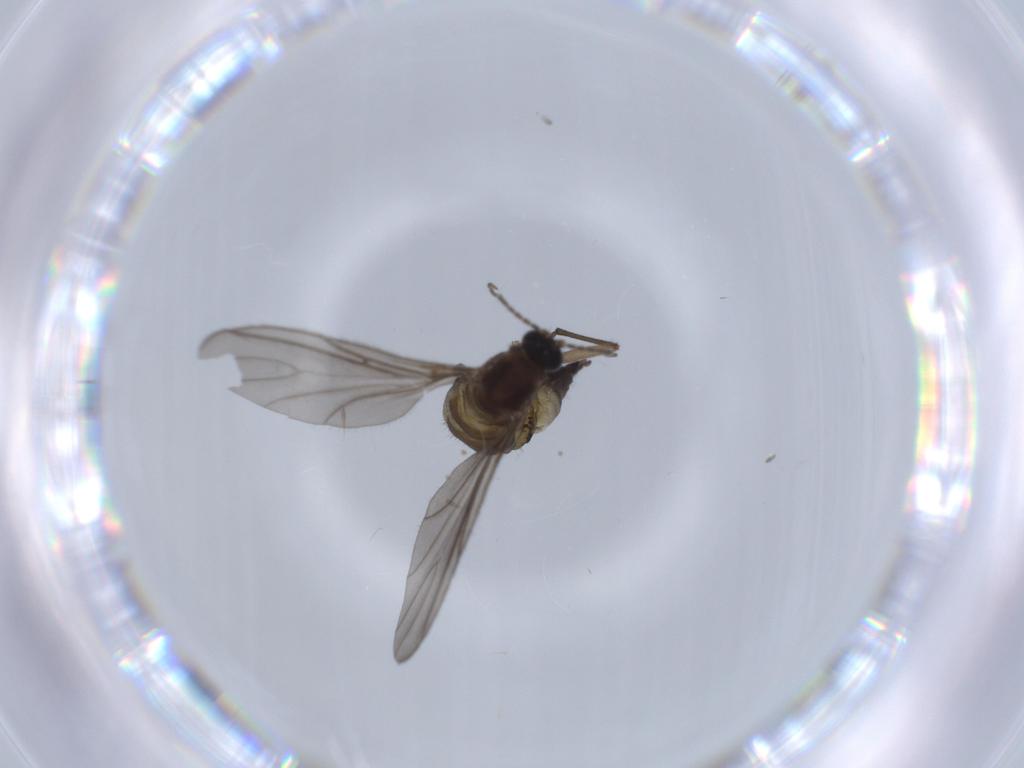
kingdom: Animalia
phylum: Arthropoda
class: Insecta
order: Diptera
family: Sciaridae
